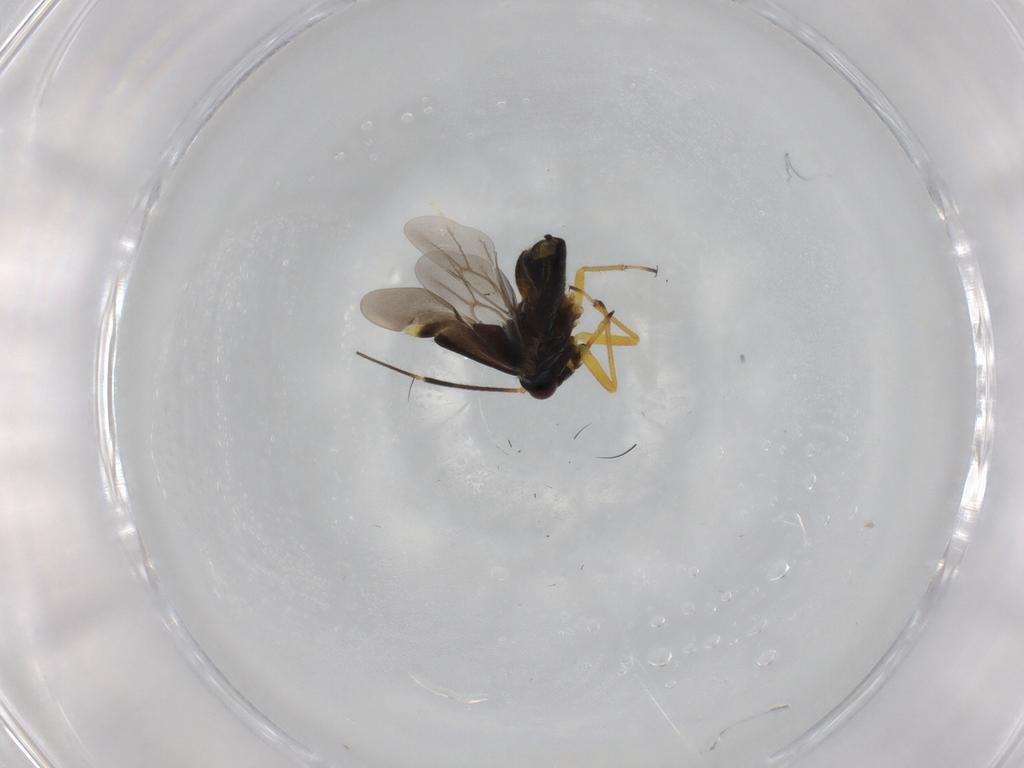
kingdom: Animalia
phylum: Arthropoda
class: Insecta
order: Hemiptera
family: Miridae
